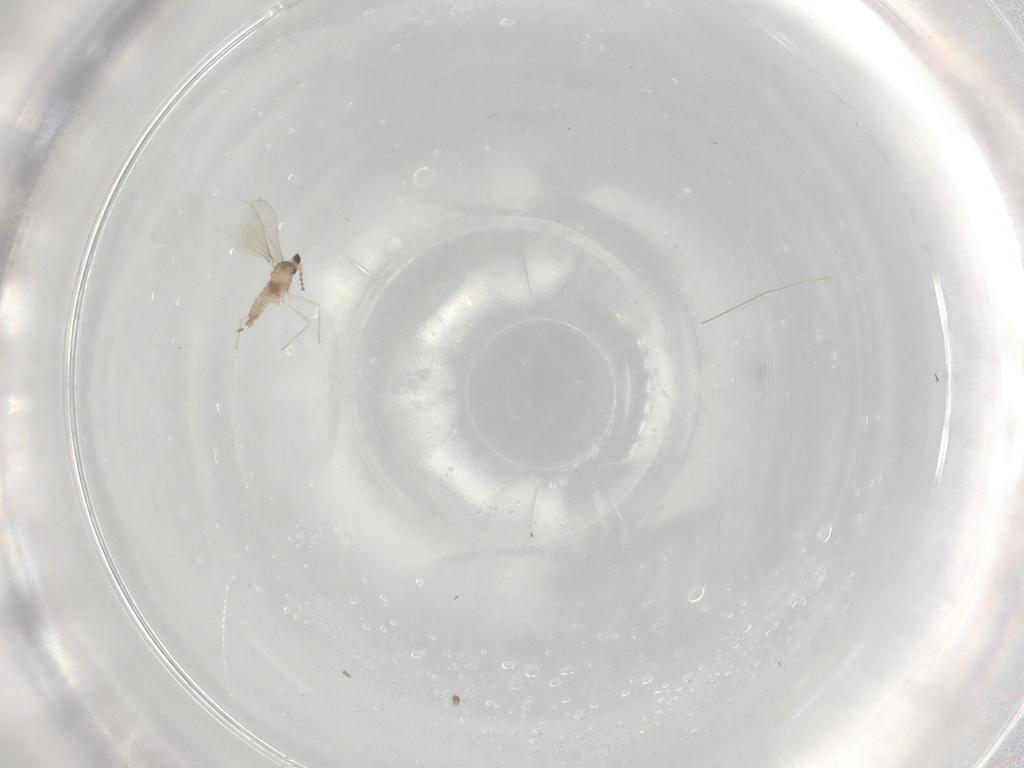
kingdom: Animalia
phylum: Arthropoda
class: Insecta
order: Diptera
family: Cecidomyiidae
